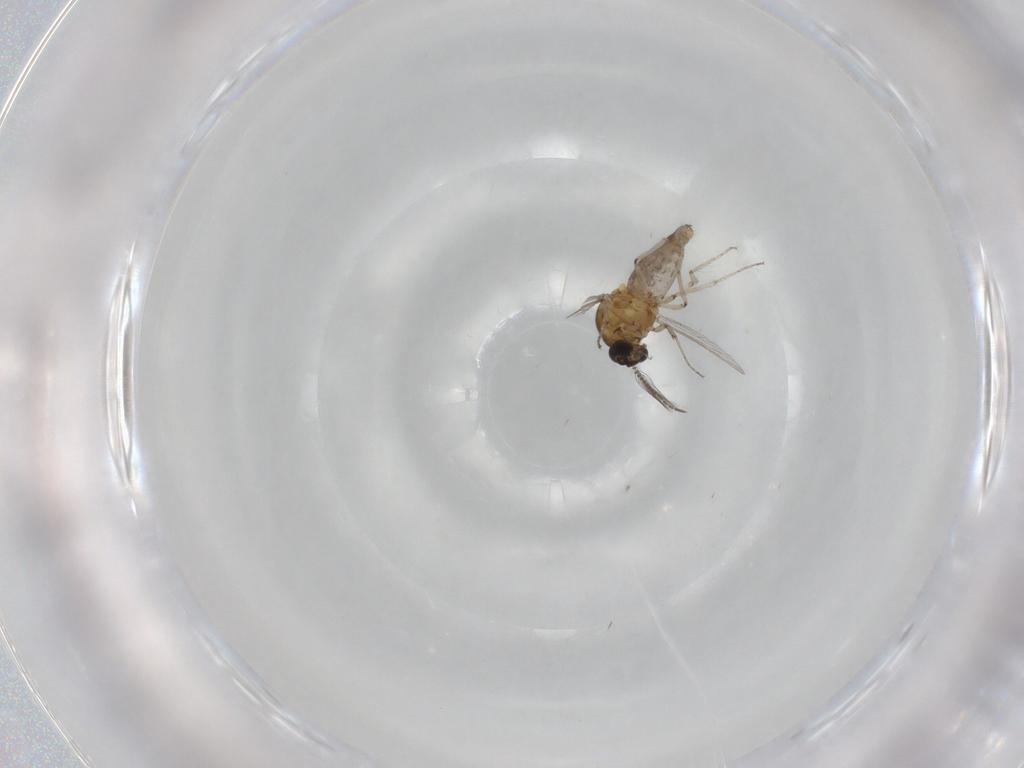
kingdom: Animalia
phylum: Arthropoda
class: Insecta
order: Diptera
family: Ceratopogonidae
